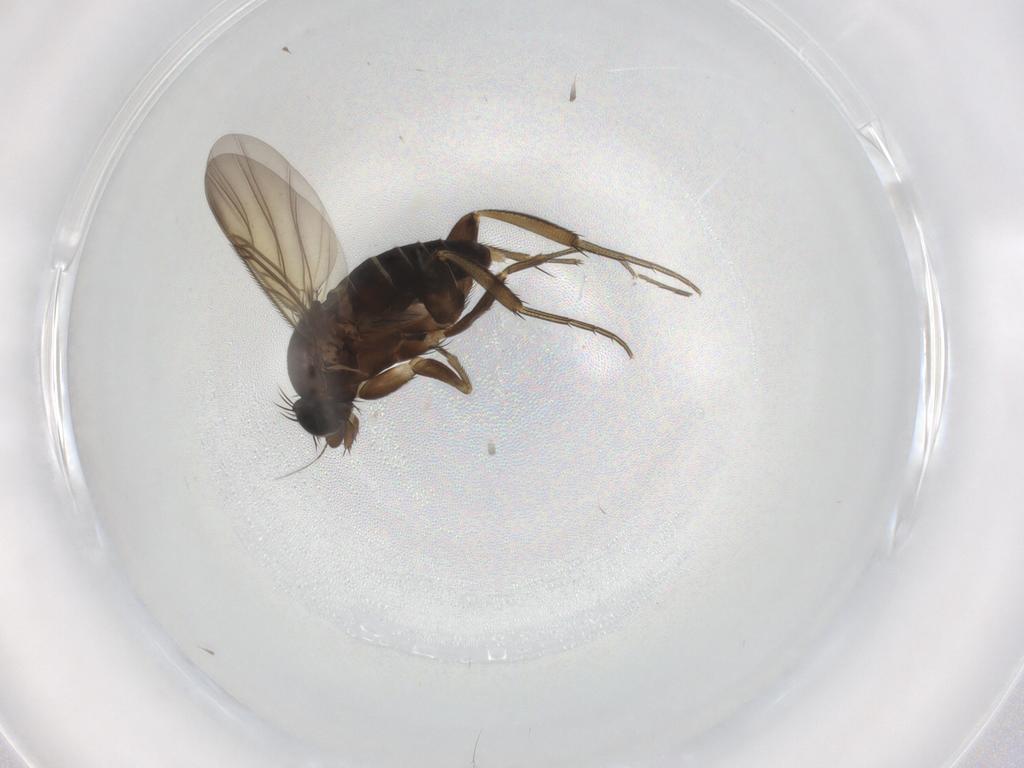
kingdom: Animalia
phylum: Arthropoda
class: Insecta
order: Diptera
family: Phoridae
